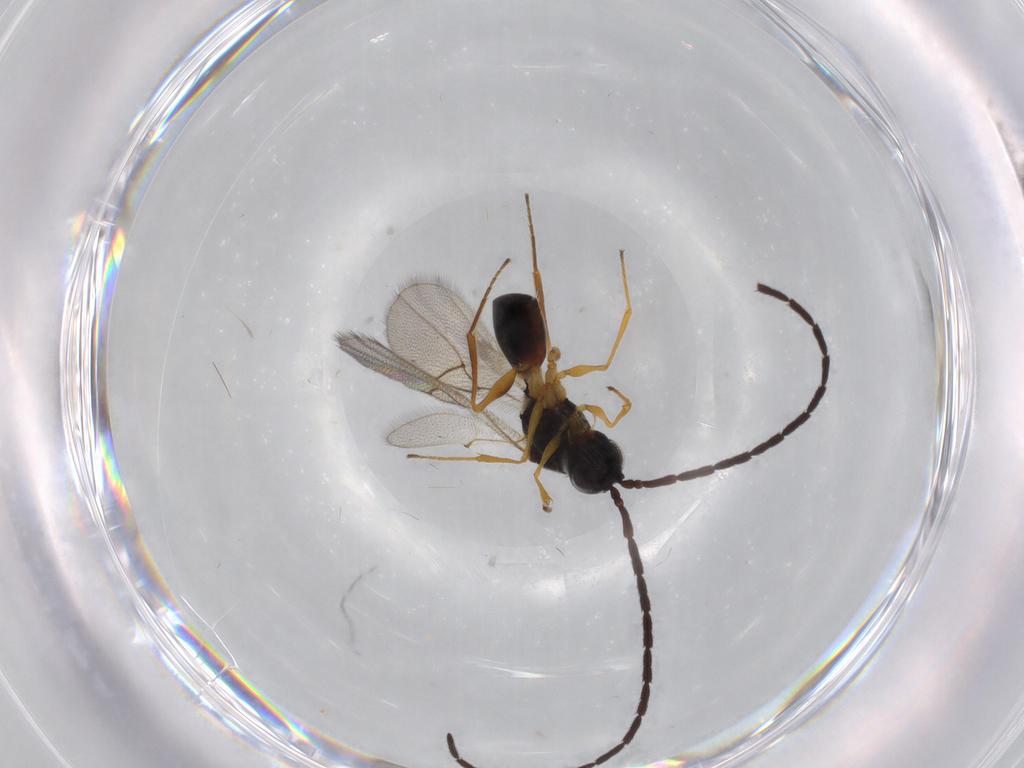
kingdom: Animalia
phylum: Arthropoda
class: Insecta
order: Hymenoptera
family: Figitidae
